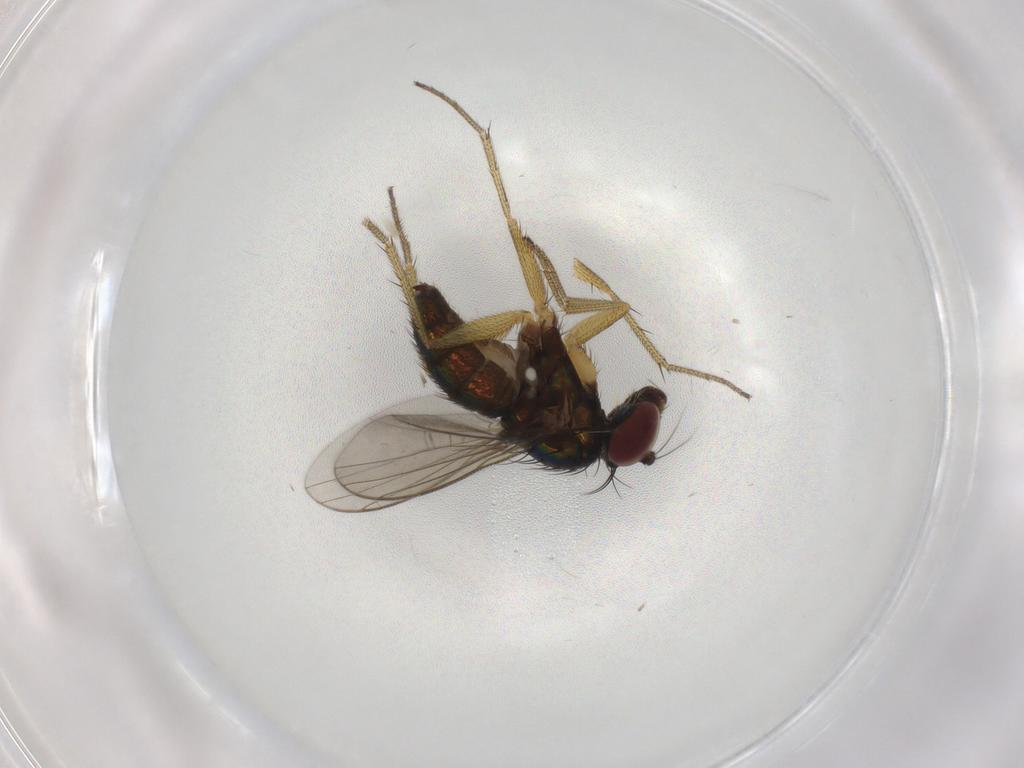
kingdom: Animalia
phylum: Arthropoda
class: Insecta
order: Diptera
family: Dolichopodidae
